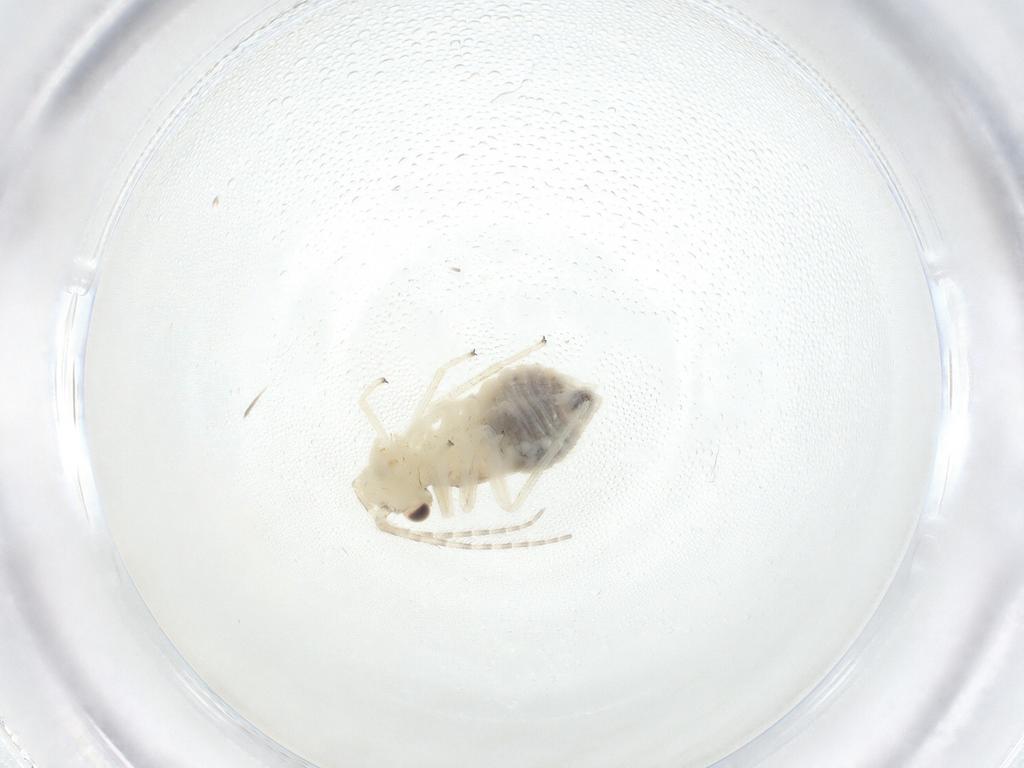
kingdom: Animalia
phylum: Arthropoda
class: Insecta
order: Psocodea
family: Amphipsocidae
